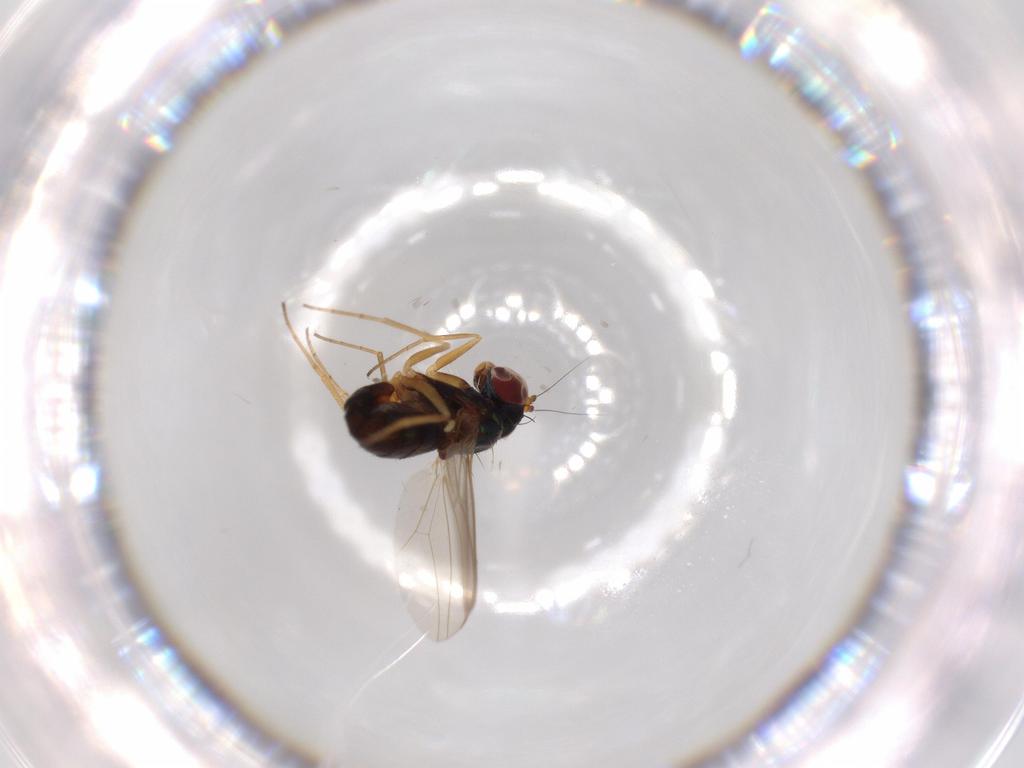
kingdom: Animalia
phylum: Arthropoda
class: Insecta
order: Diptera
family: Dolichopodidae
